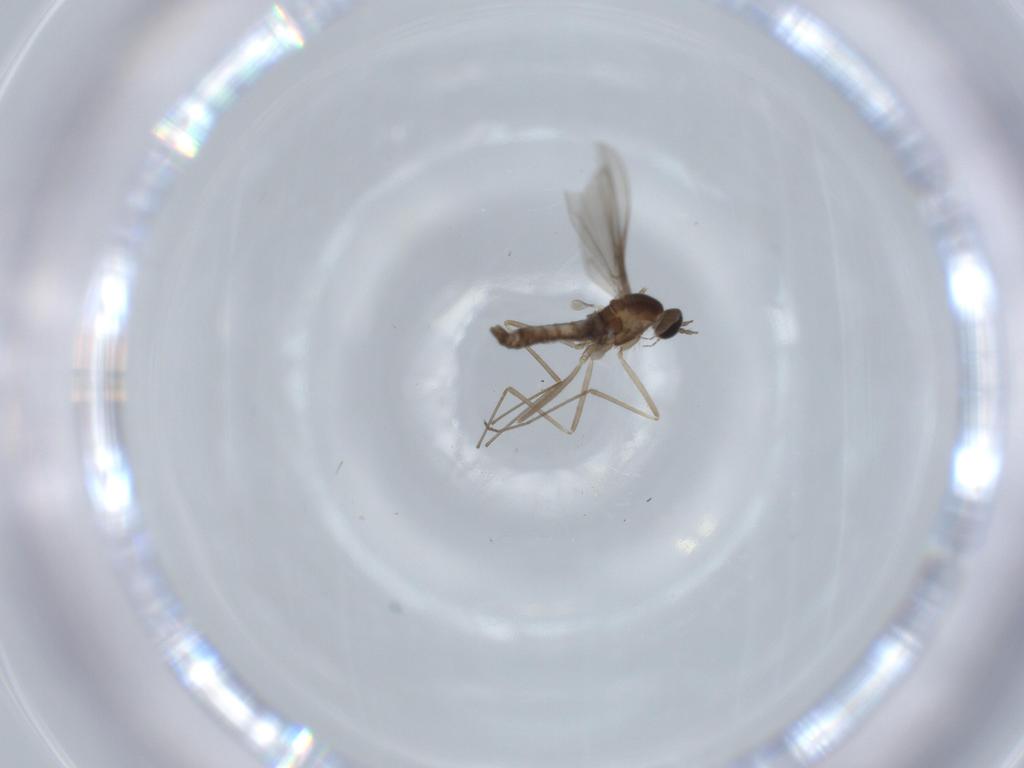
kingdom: Animalia
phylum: Arthropoda
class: Insecta
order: Diptera
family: Cecidomyiidae
